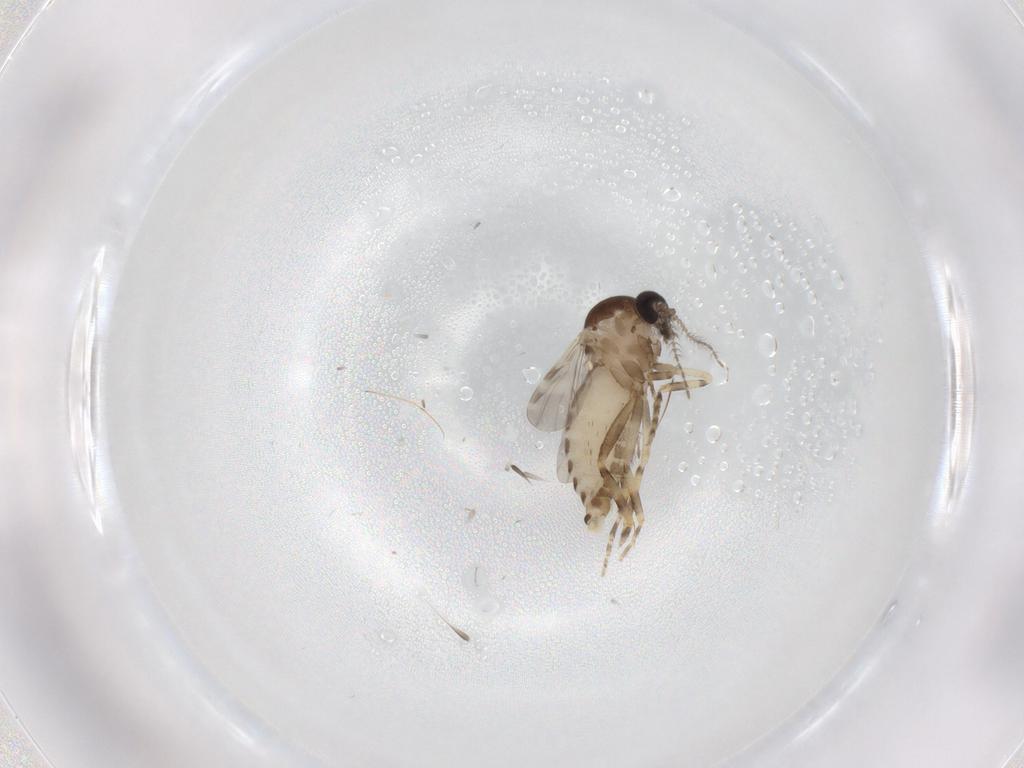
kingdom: Animalia
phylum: Arthropoda
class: Insecta
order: Diptera
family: Ceratopogonidae
